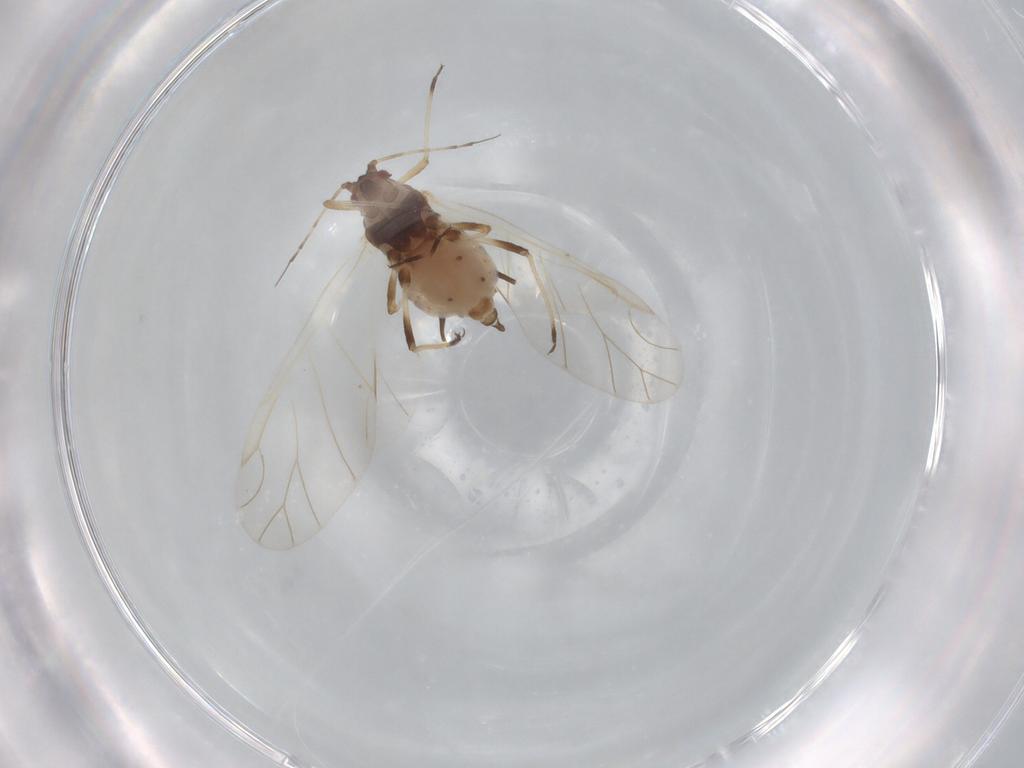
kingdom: Animalia
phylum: Arthropoda
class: Insecta
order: Hemiptera
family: Aphididae
